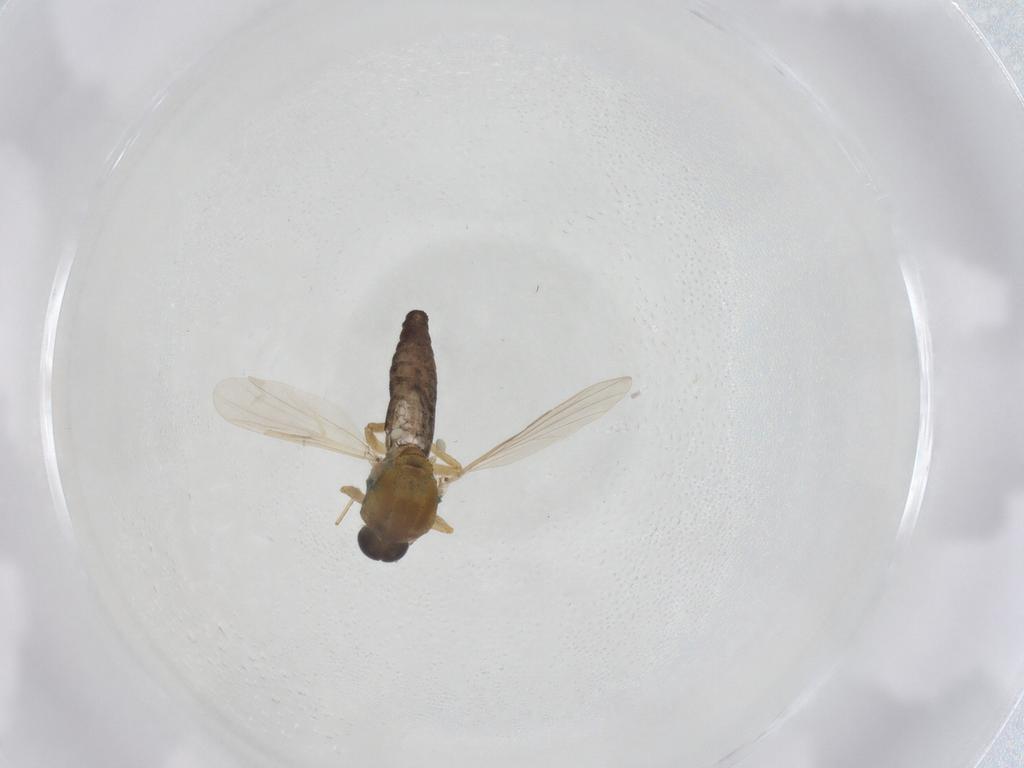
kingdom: Animalia
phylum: Arthropoda
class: Insecta
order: Diptera
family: Ceratopogonidae
